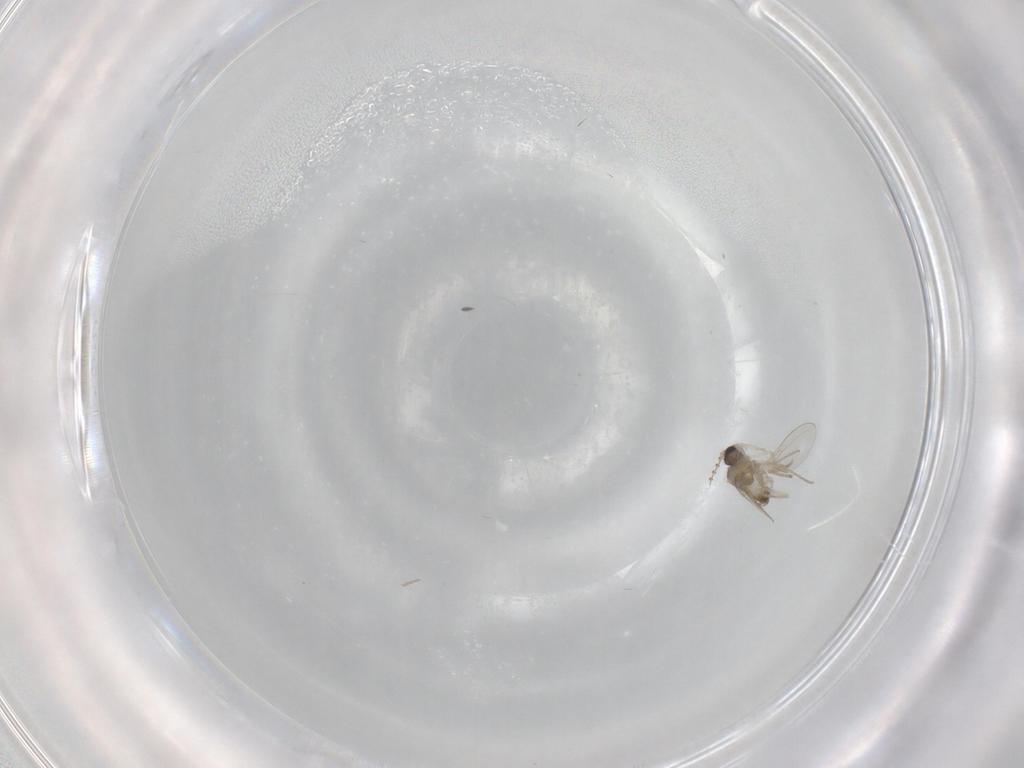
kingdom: Animalia
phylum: Arthropoda
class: Insecta
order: Diptera
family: Cecidomyiidae
